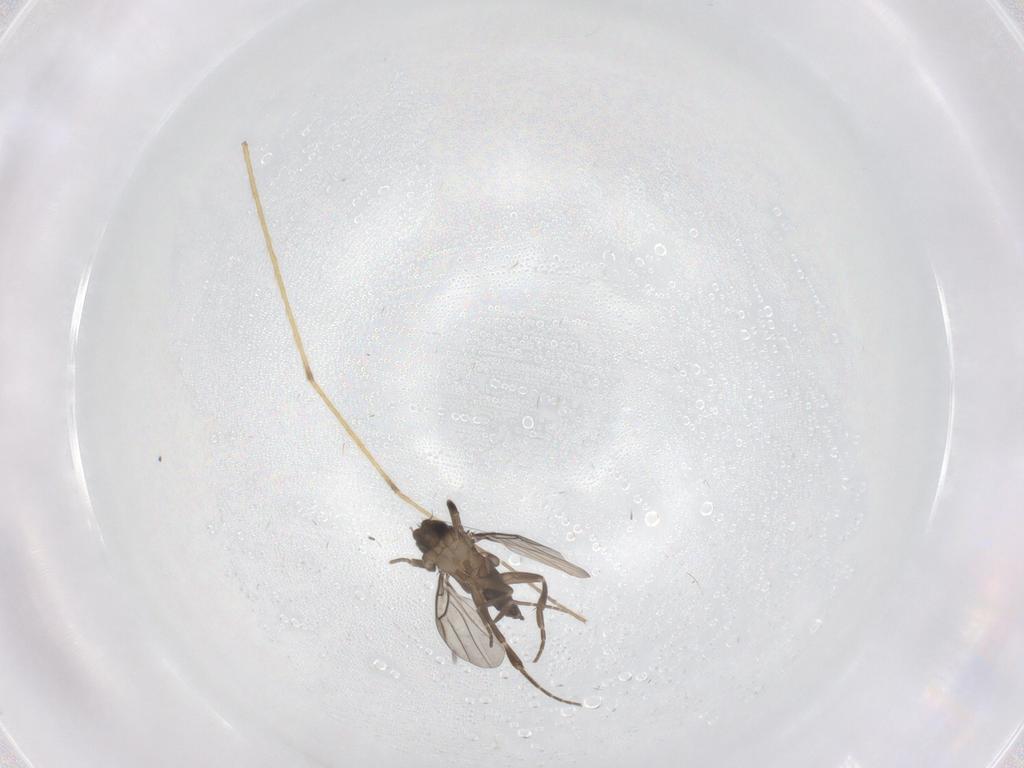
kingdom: Animalia
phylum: Arthropoda
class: Insecta
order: Diptera
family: Chironomidae
